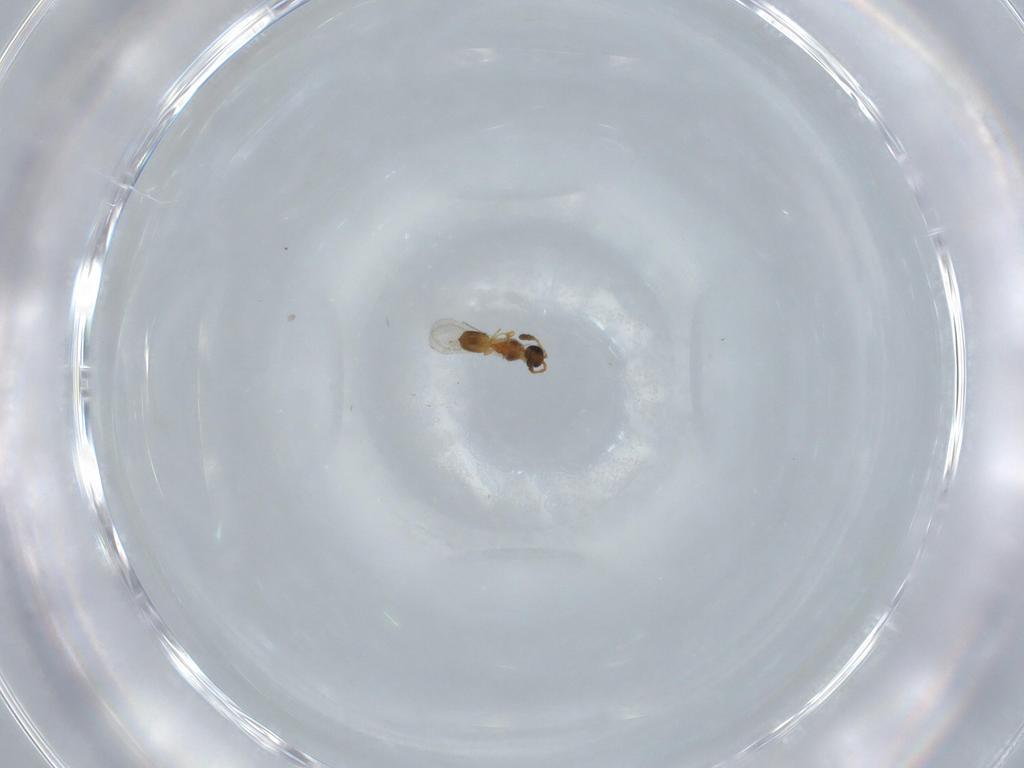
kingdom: Animalia
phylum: Arthropoda
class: Insecta
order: Hymenoptera
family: Diapriidae
